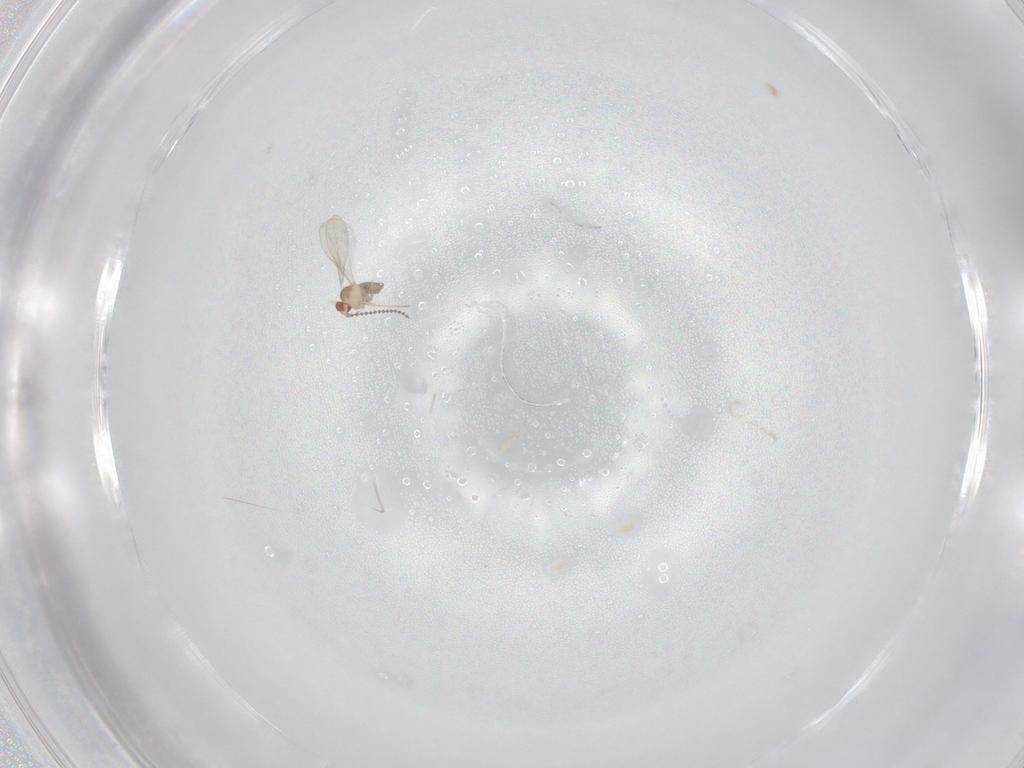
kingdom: Animalia
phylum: Arthropoda
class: Insecta
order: Diptera
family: Cecidomyiidae
